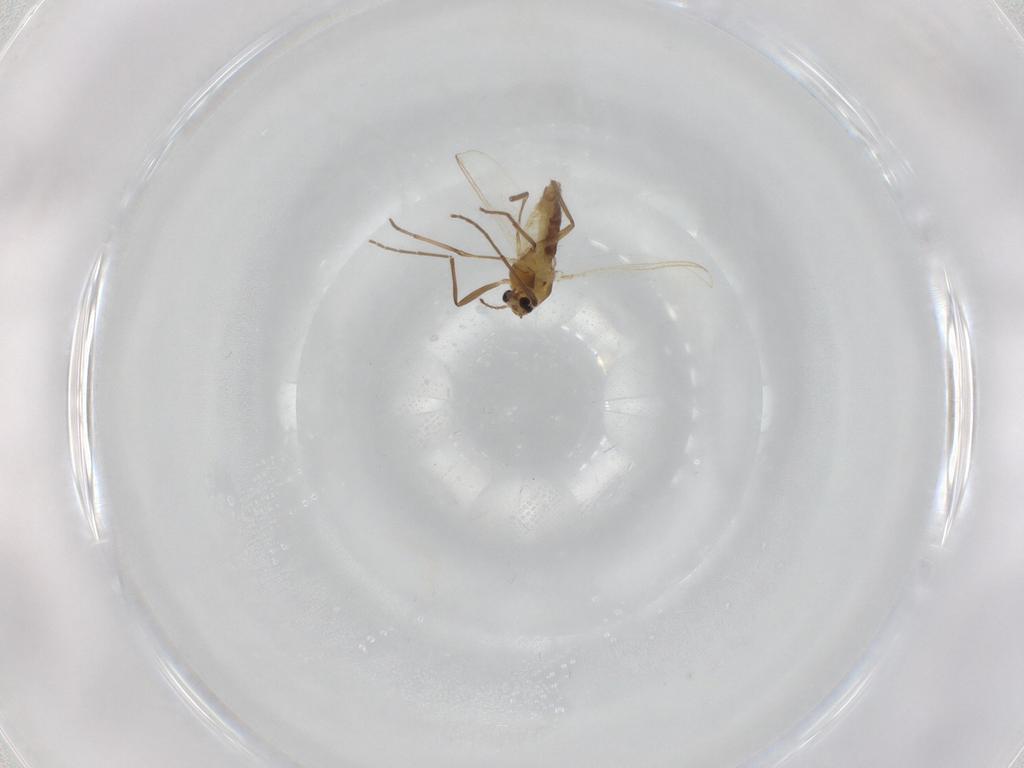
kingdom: Animalia
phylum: Arthropoda
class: Insecta
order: Diptera
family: Chironomidae
